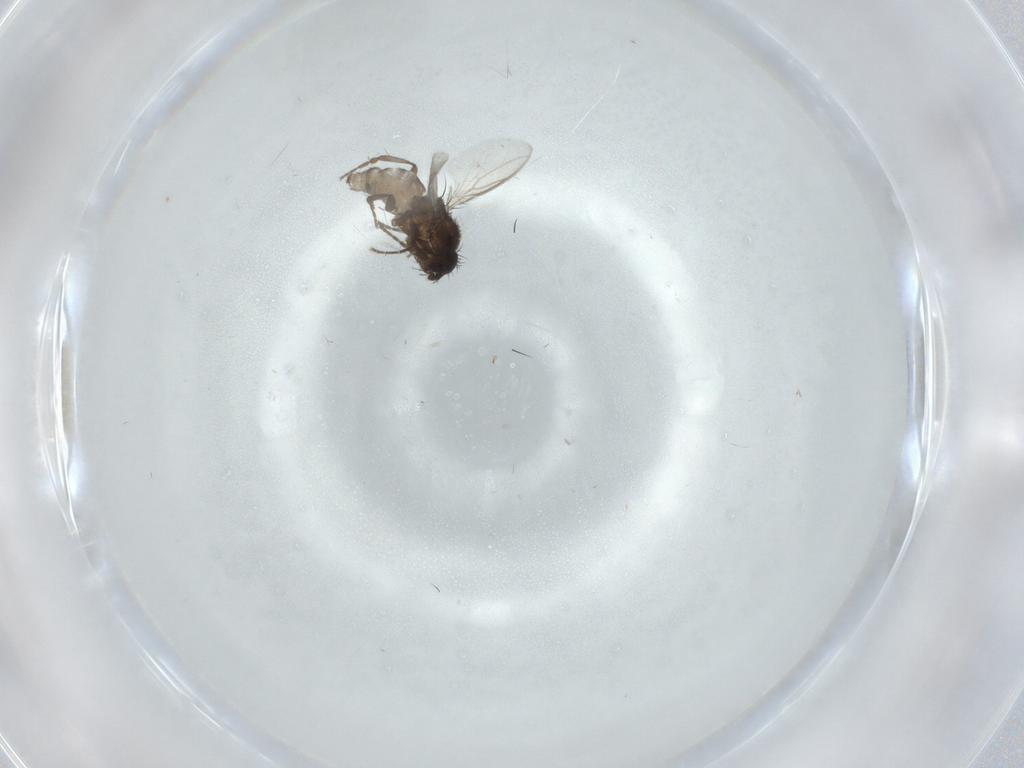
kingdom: Animalia
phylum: Arthropoda
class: Insecta
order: Diptera
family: Sphaeroceridae
